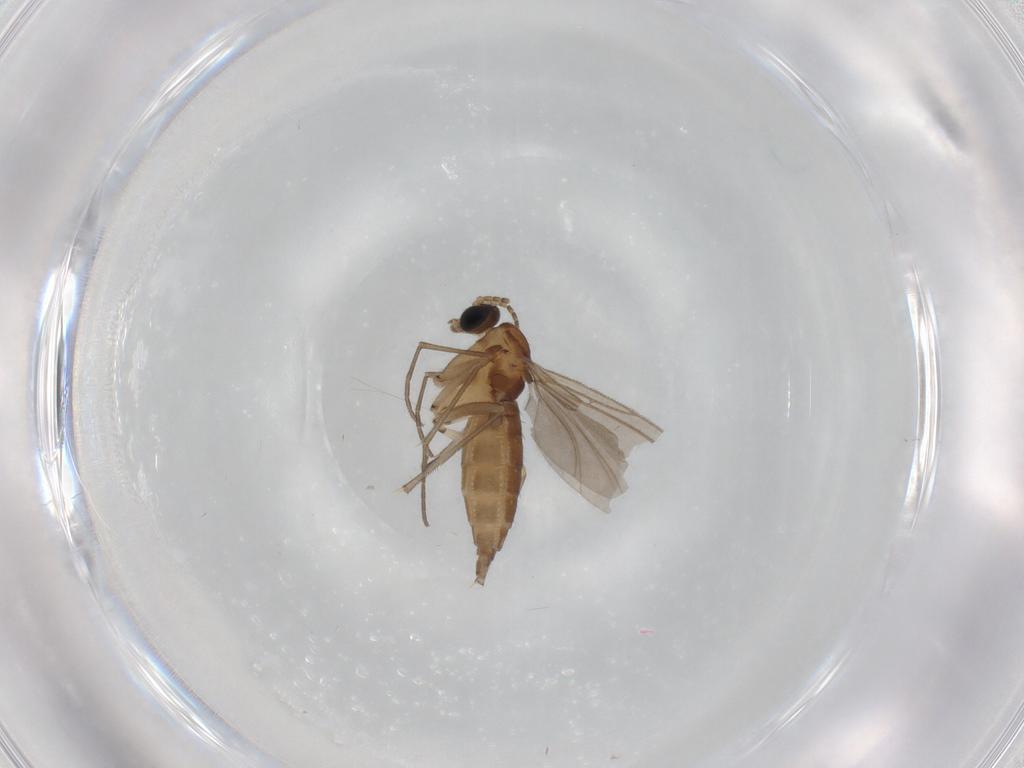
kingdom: Animalia
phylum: Arthropoda
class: Insecta
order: Diptera
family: Sciaridae
